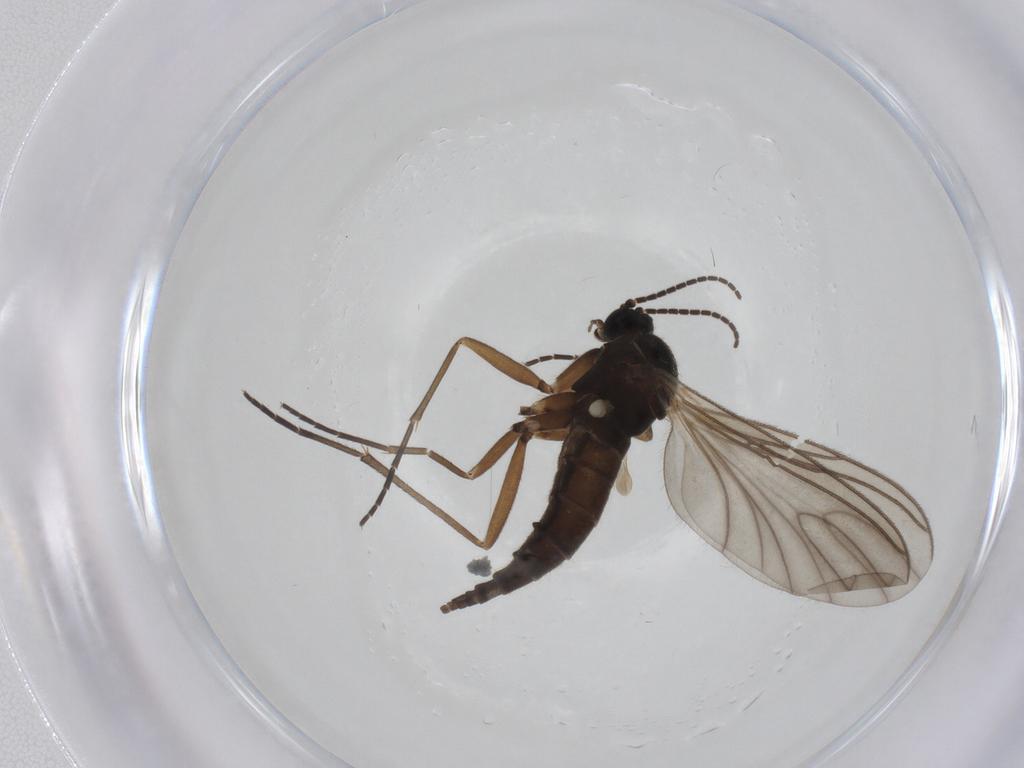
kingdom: Animalia
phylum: Arthropoda
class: Insecta
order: Diptera
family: Sciaridae
